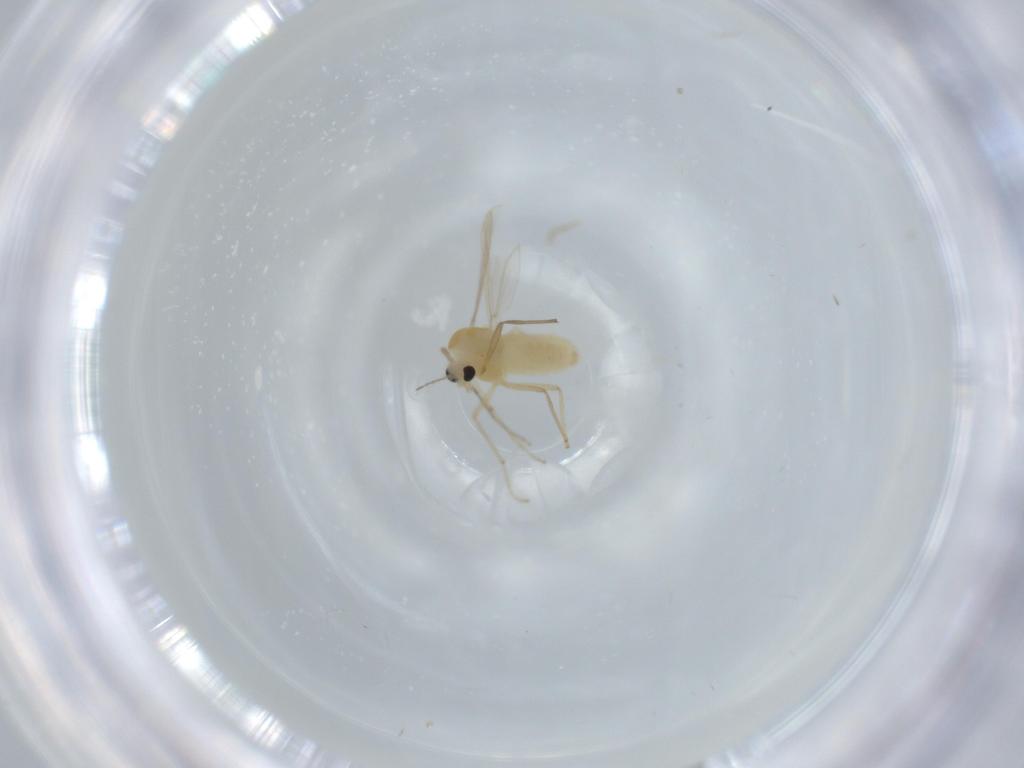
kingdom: Animalia
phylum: Arthropoda
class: Insecta
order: Diptera
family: Chironomidae
